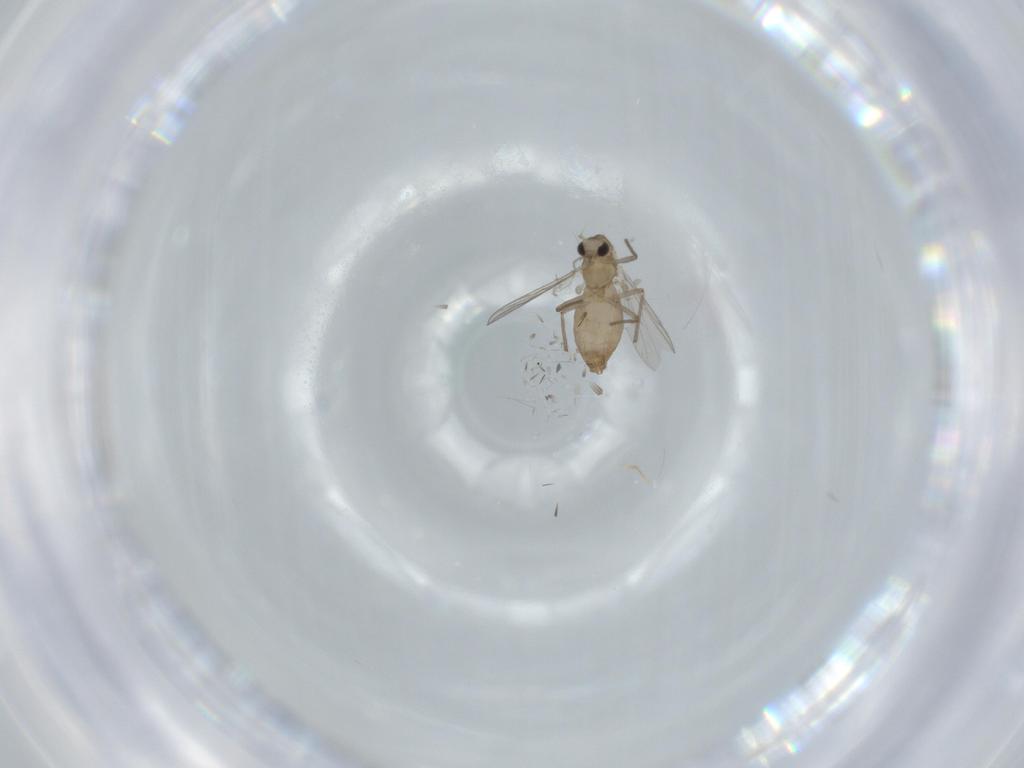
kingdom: Animalia
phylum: Arthropoda
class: Insecta
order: Diptera
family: Chironomidae
